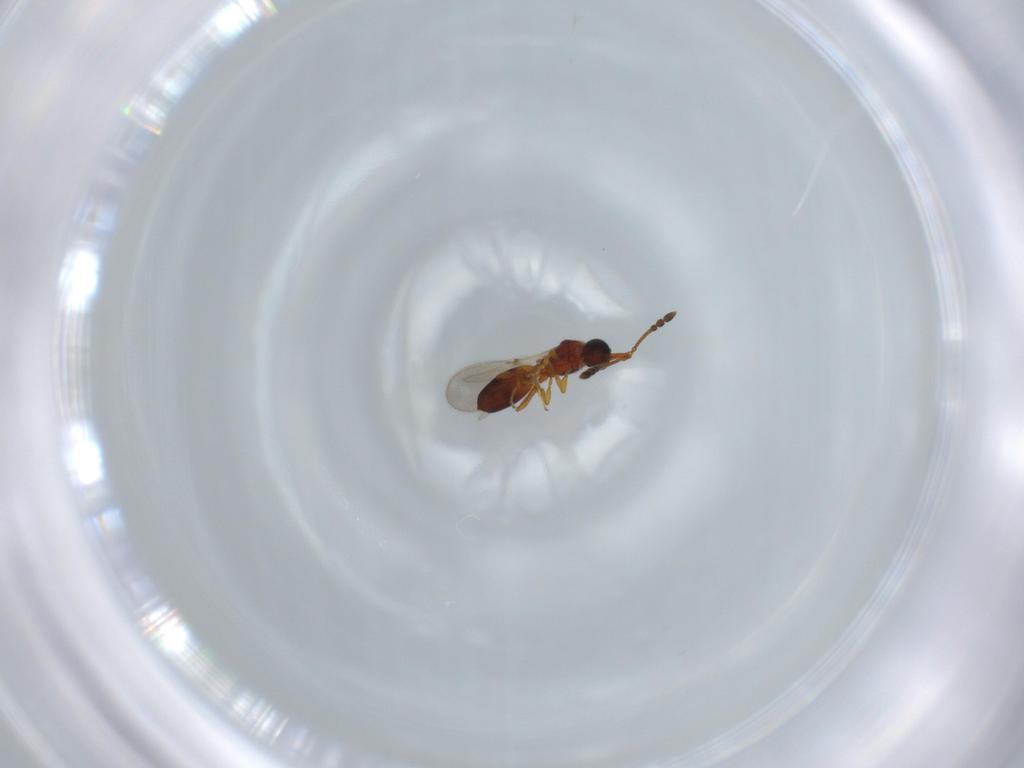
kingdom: Animalia
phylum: Arthropoda
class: Insecta
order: Hymenoptera
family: Diapriidae
